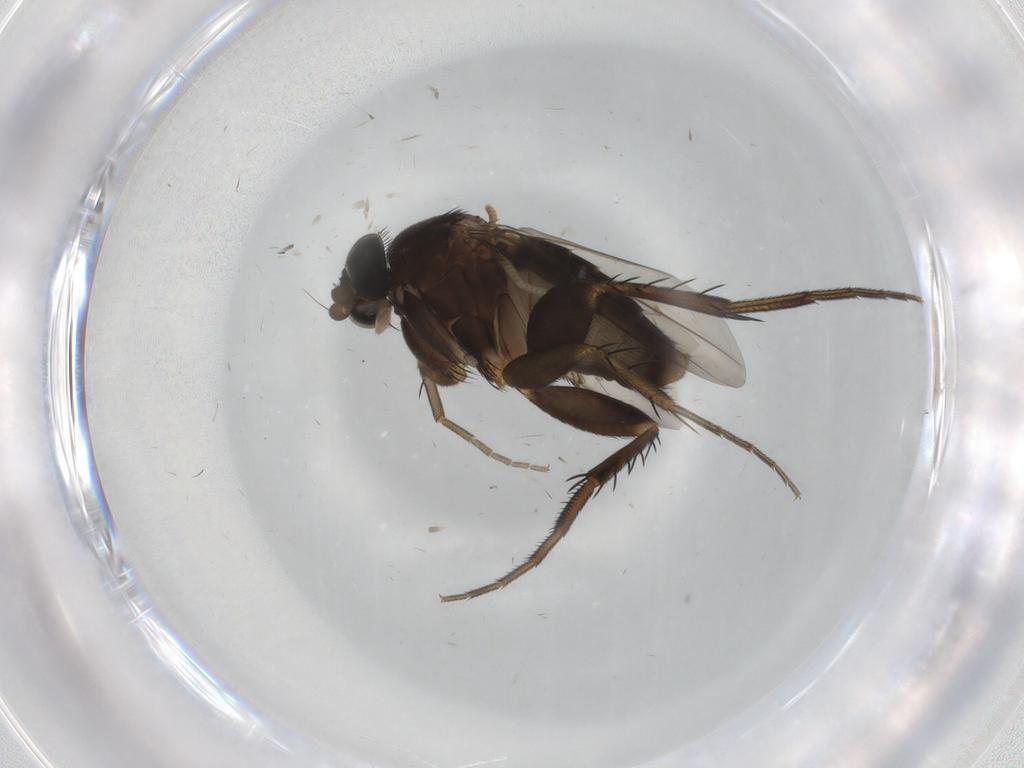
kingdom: Animalia
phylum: Arthropoda
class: Insecta
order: Diptera
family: Phoridae
